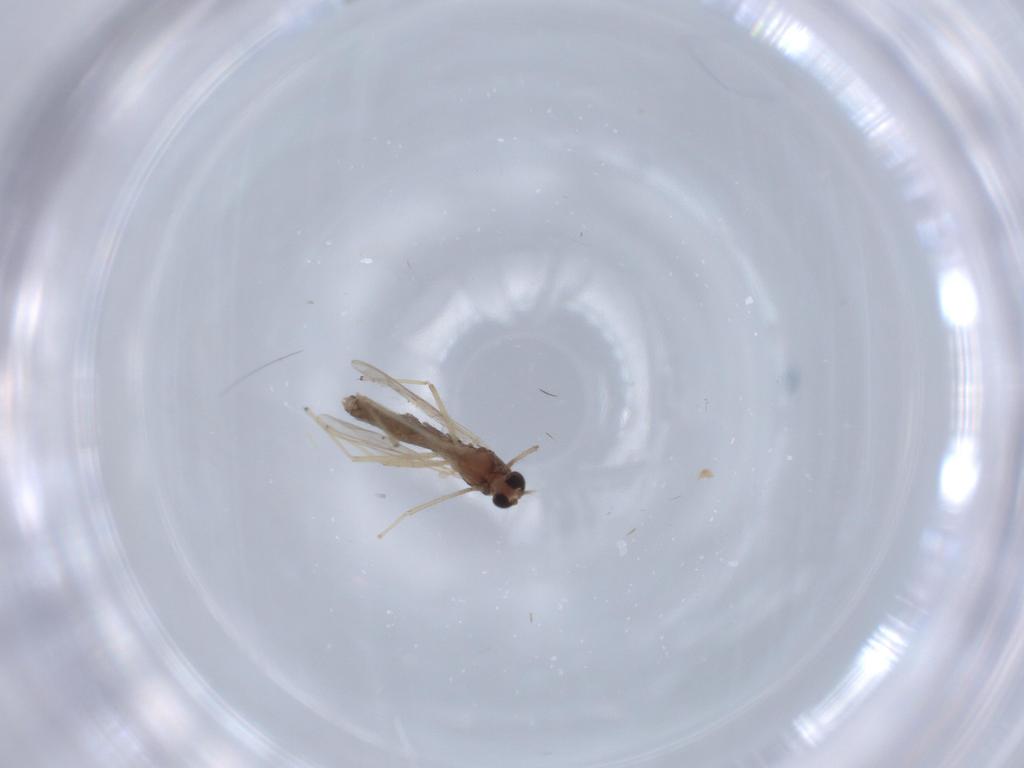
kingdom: Animalia
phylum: Arthropoda
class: Insecta
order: Diptera
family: Chironomidae
